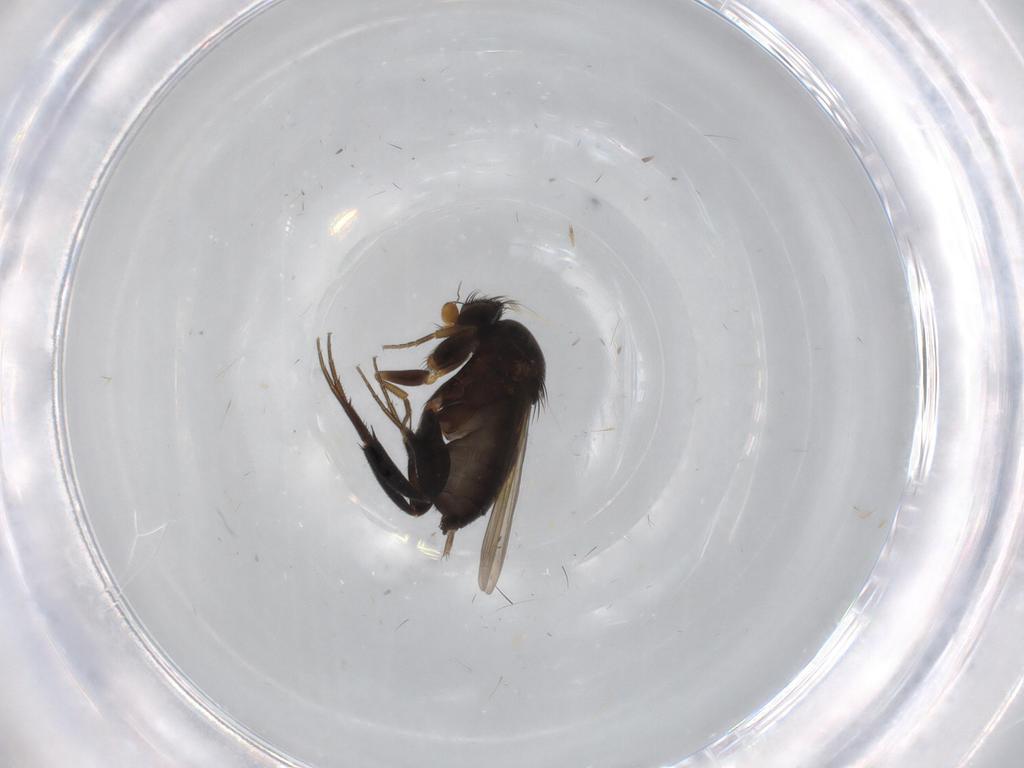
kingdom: Animalia
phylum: Arthropoda
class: Insecta
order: Diptera
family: Phoridae
